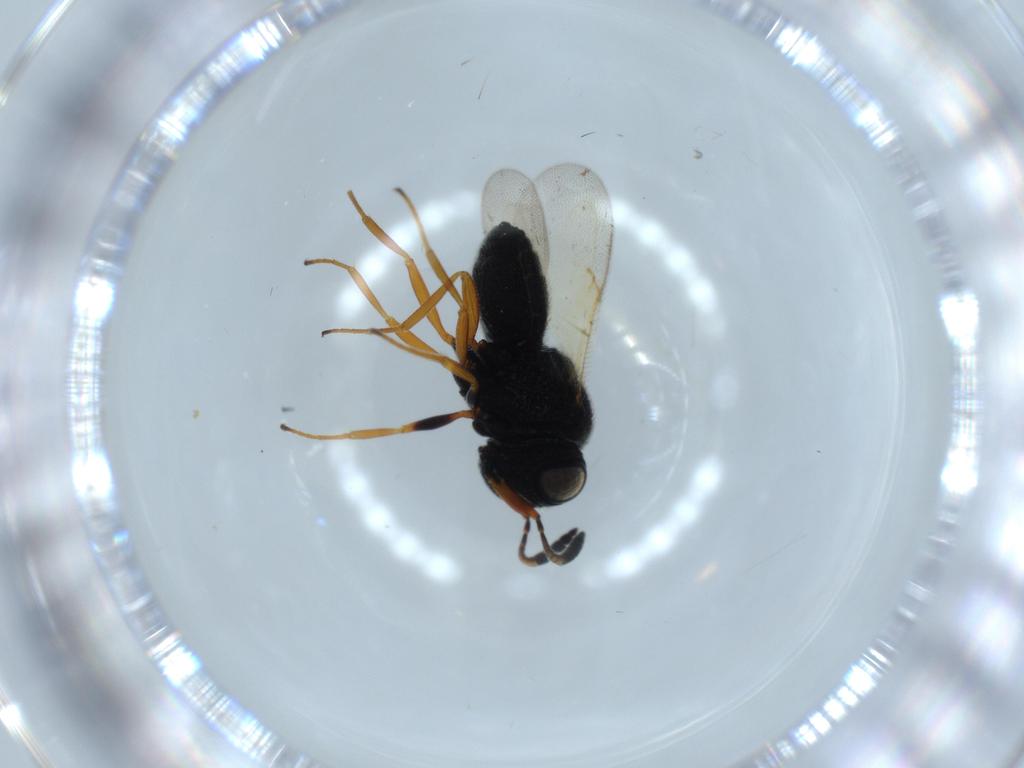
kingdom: Animalia
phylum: Arthropoda
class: Insecta
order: Hymenoptera
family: Scelionidae
